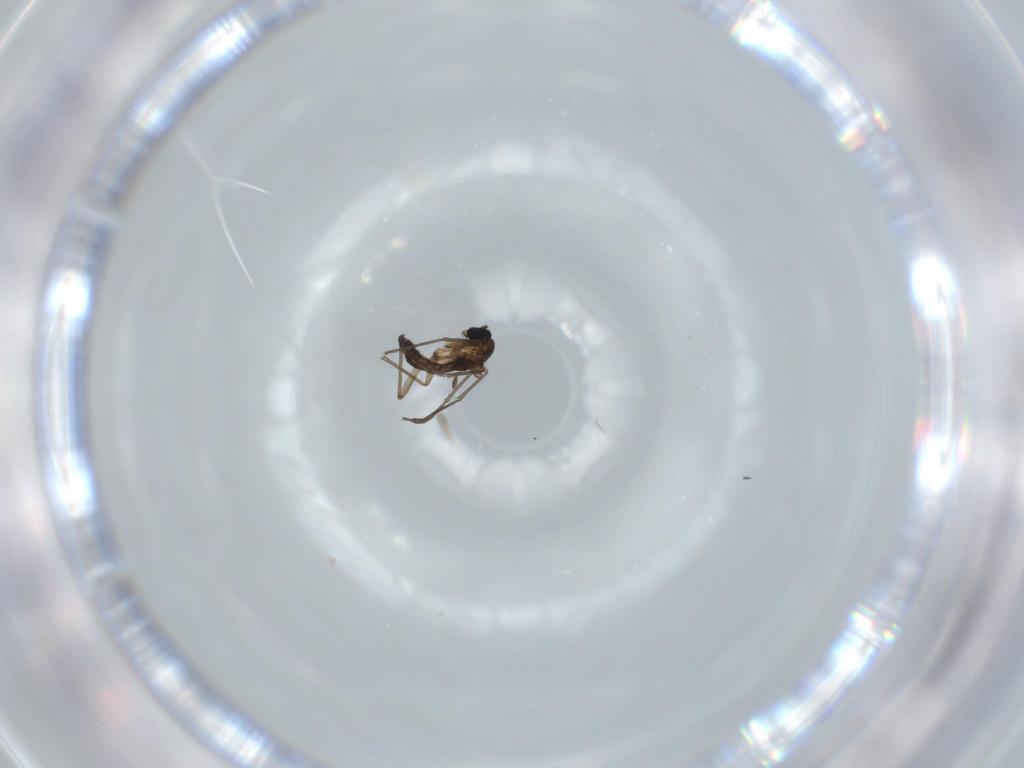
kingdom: Animalia
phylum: Arthropoda
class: Insecta
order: Diptera
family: Sciaridae
